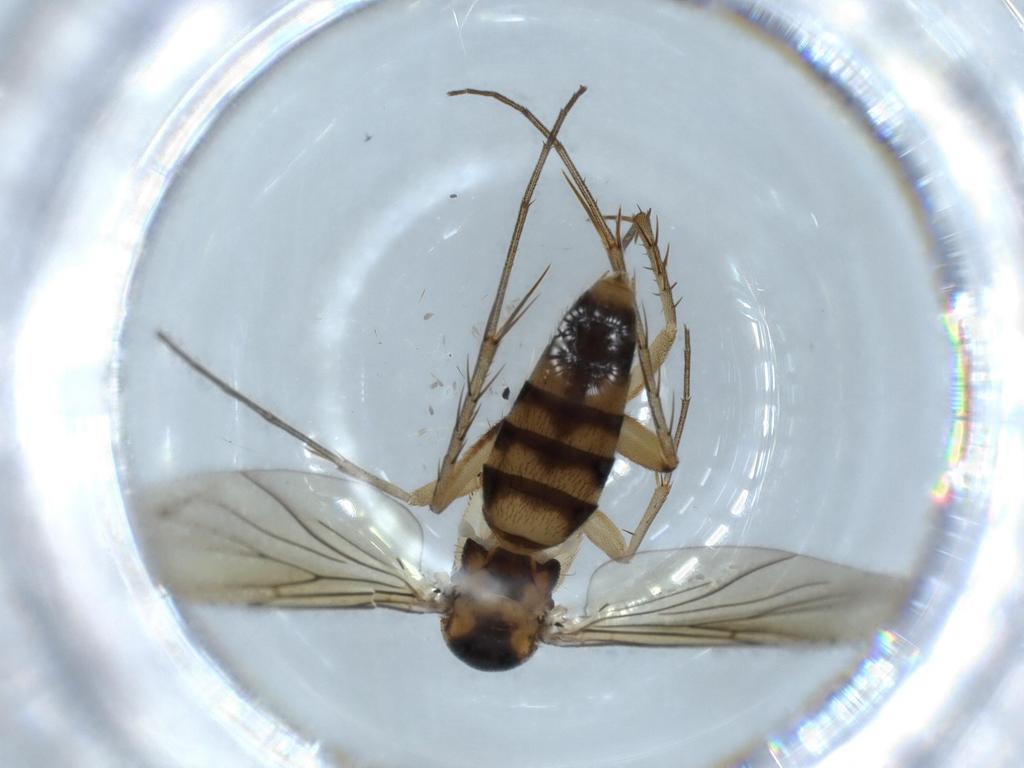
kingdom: Animalia
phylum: Arthropoda
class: Insecta
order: Diptera
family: Mycetophilidae
